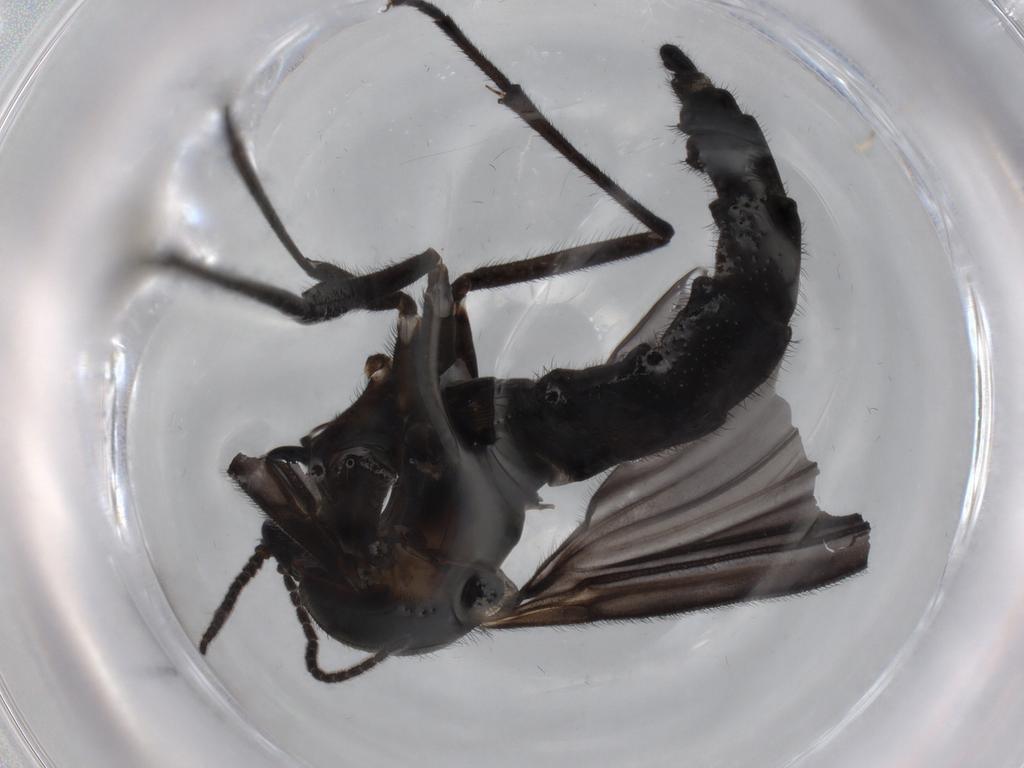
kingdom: Animalia
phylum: Arthropoda
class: Insecta
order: Diptera
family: Sciaridae
